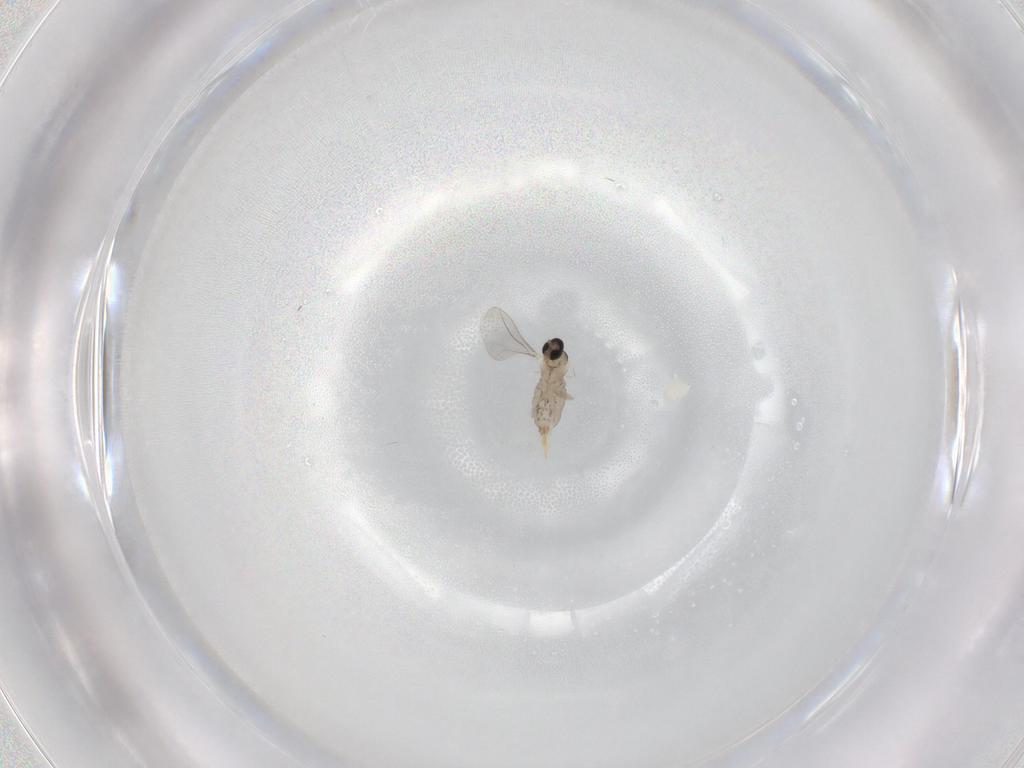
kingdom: Animalia
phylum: Arthropoda
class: Insecta
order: Diptera
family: Cecidomyiidae
